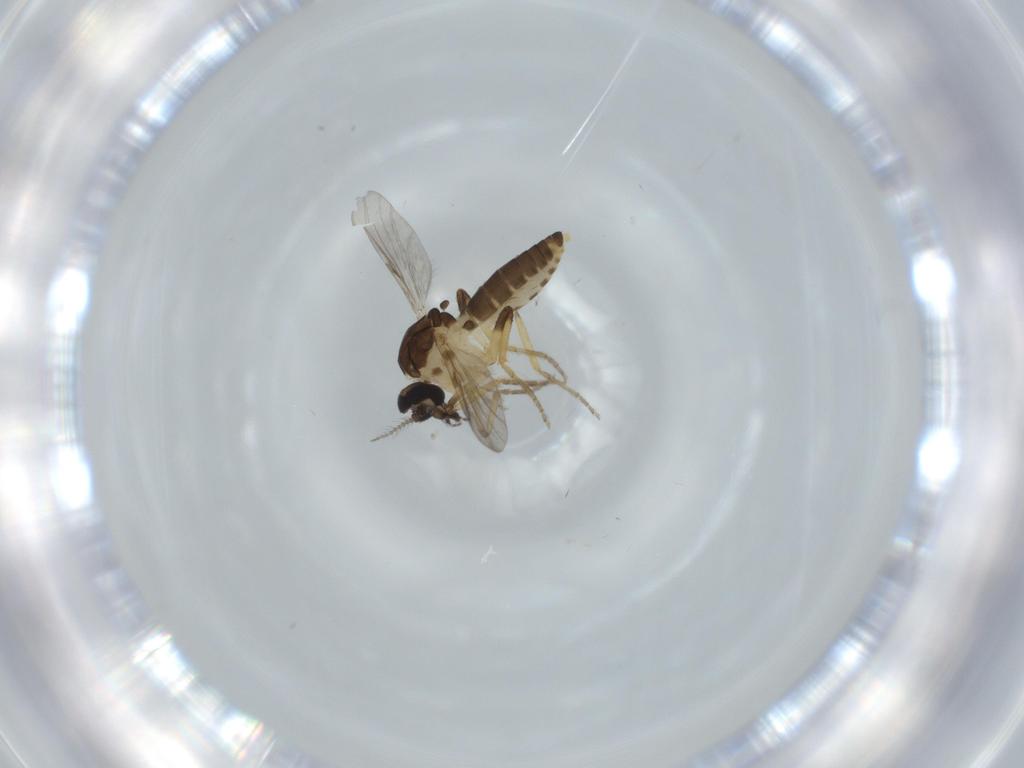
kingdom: Animalia
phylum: Arthropoda
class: Insecta
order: Diptera
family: Ceratopogonidae
